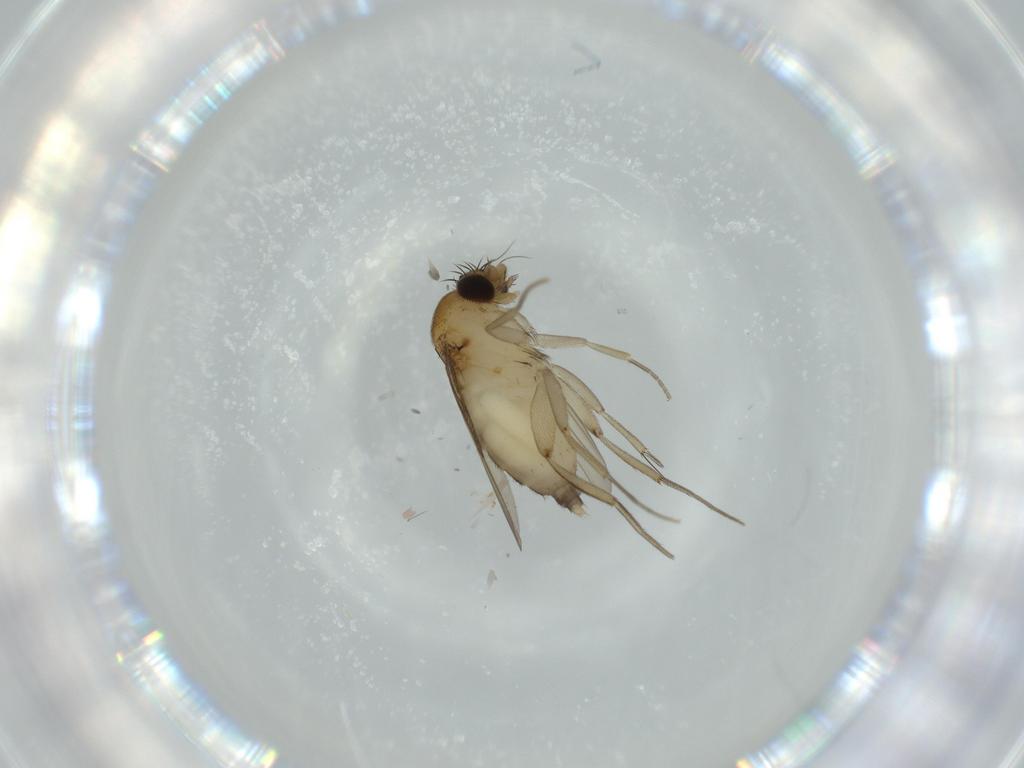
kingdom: Animalia
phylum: Arthropoda
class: Insecta
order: Diptera
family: Phoridae
